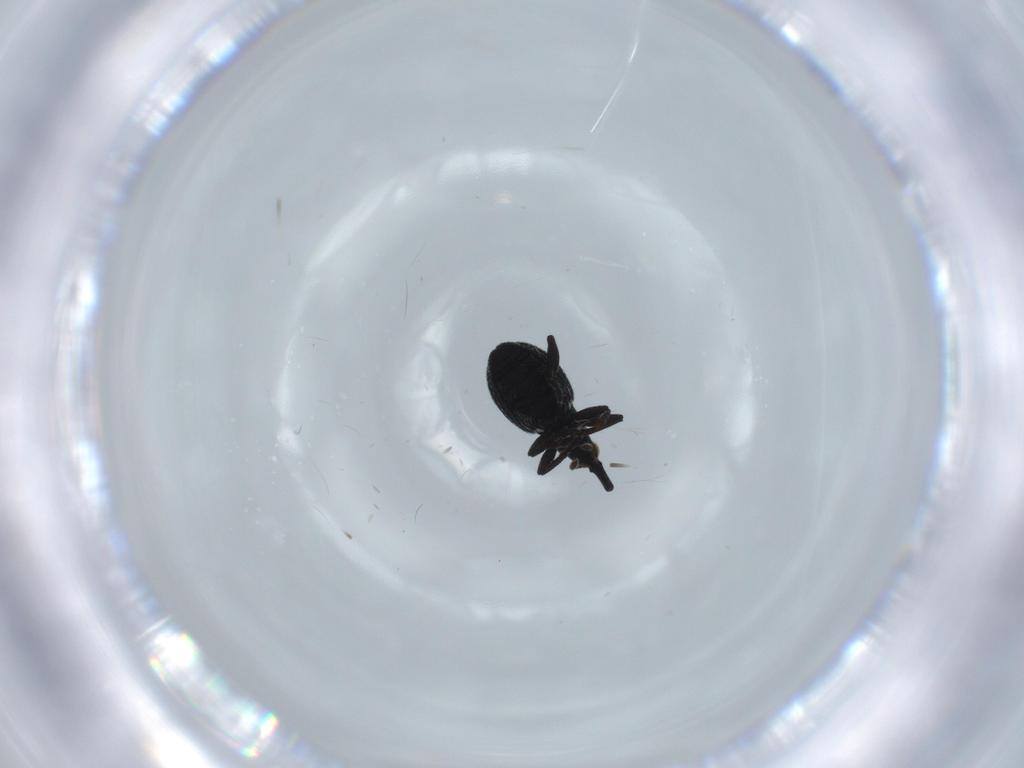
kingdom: Animalia
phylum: Arthropoda
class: Insecta
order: Coleoptera
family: Brentidae
